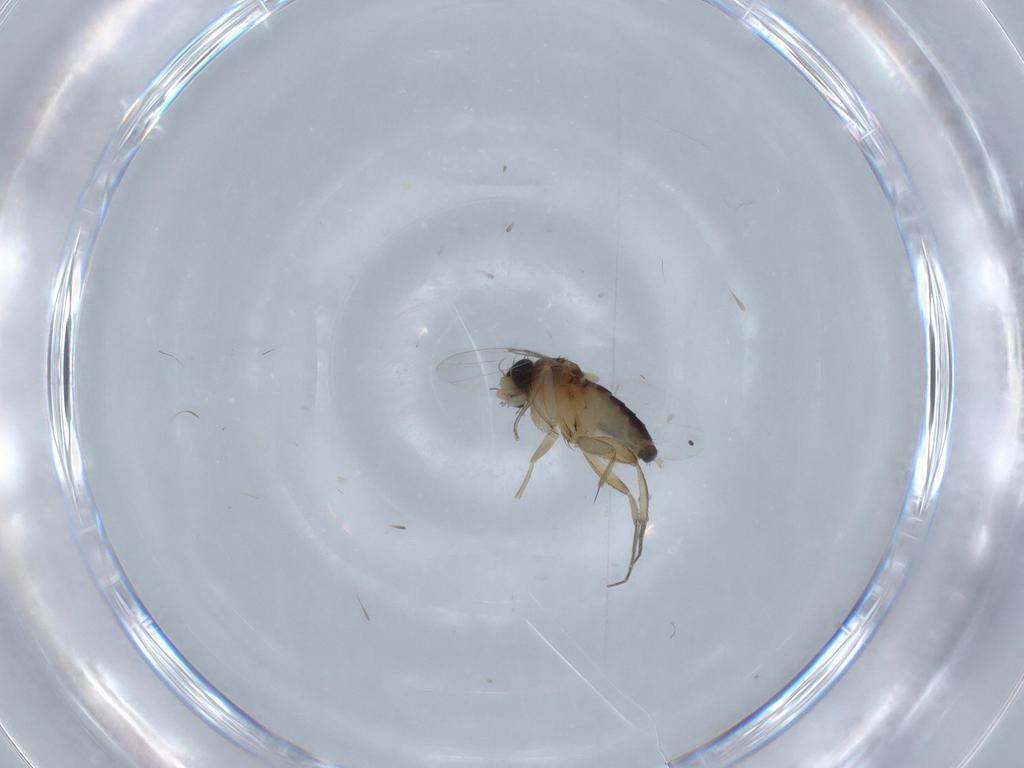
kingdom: Animalia
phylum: Arthropoda
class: Insecta
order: Diptera
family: Phoridae
